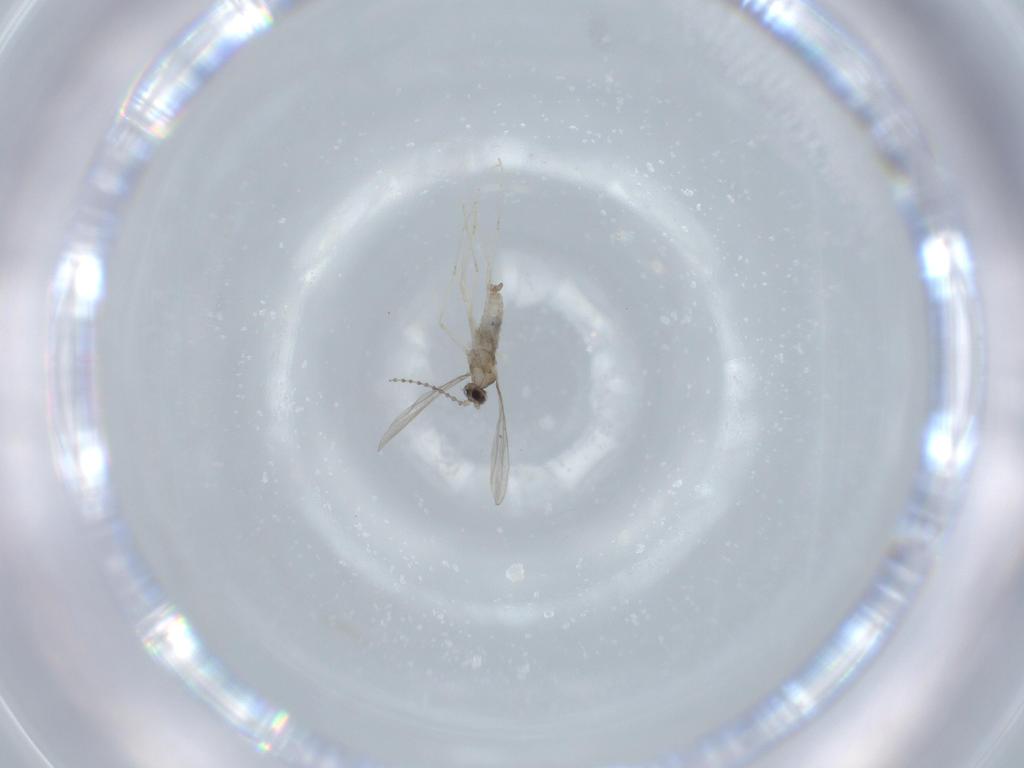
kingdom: Animalia
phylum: Arthropoda
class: Insecta
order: Diptera
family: Cecidomyiidae
